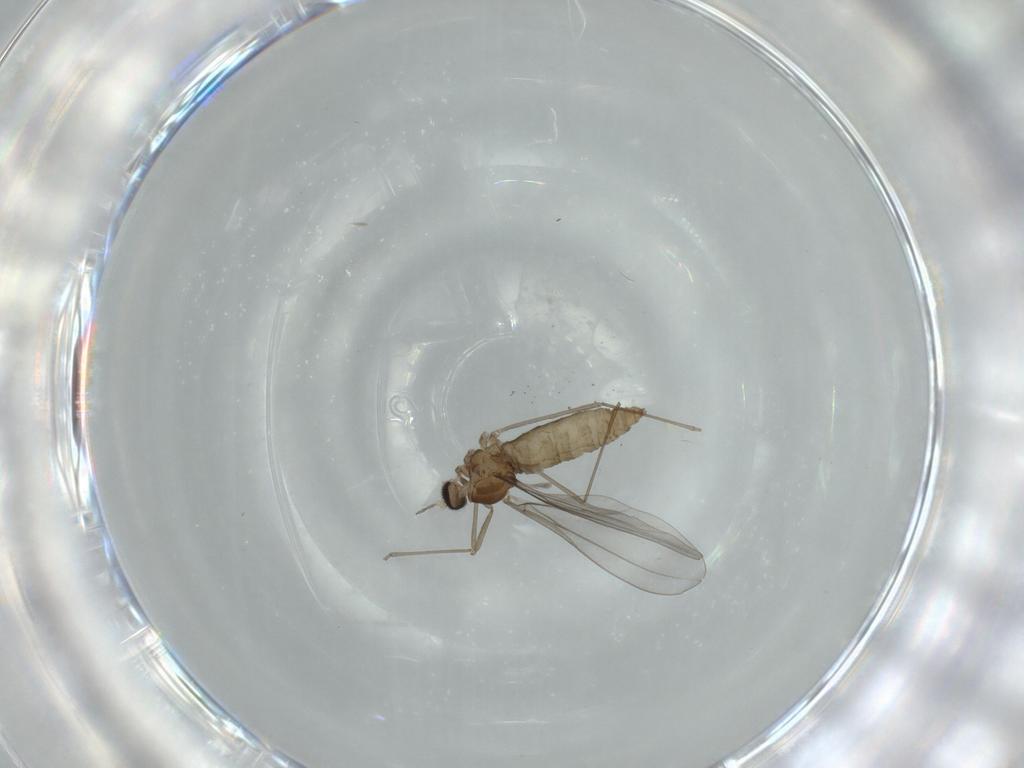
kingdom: Animalia
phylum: Arthropoda
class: Insecta
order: Diptera
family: Cecidomyiidae
